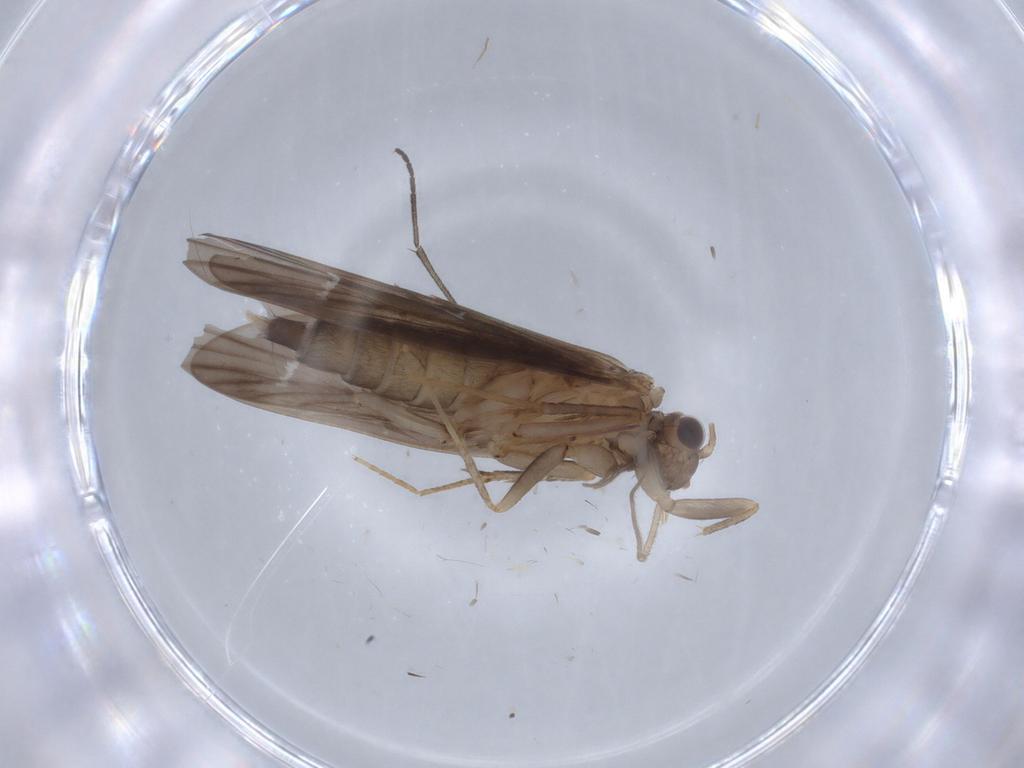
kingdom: Animalia
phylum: Arthropoda
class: Insecta
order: Trichoptera
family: Philopotamidae
